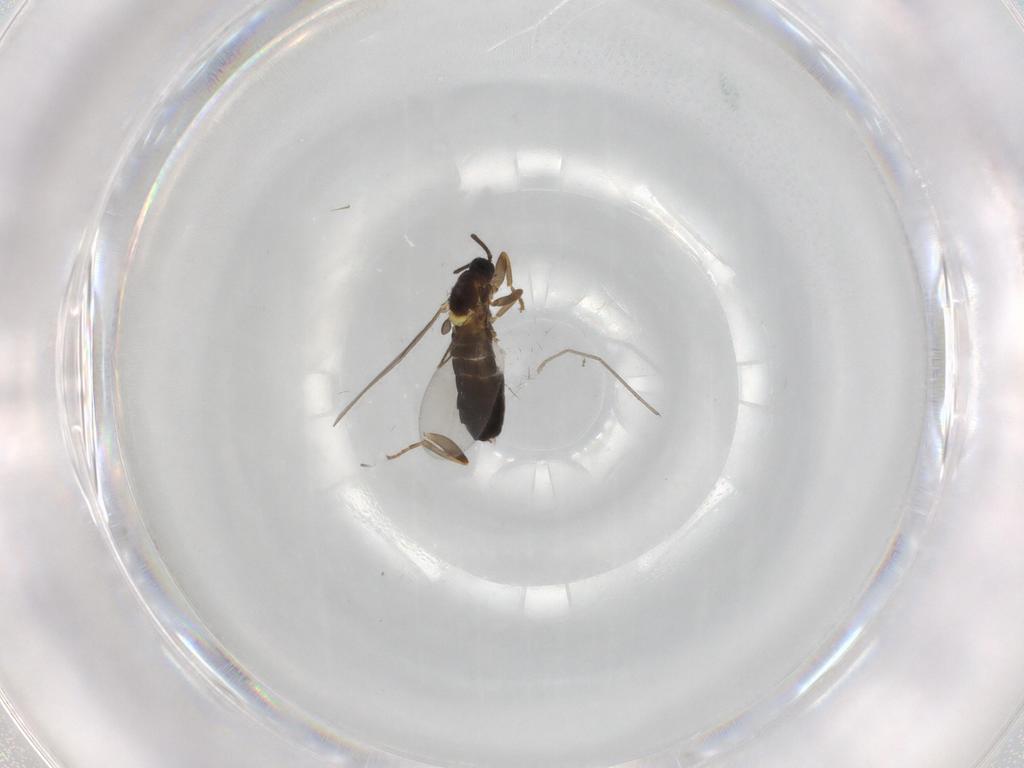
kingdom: Animalia
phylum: Arthropoda
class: Insecta
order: Diptera
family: Scatopsidae
